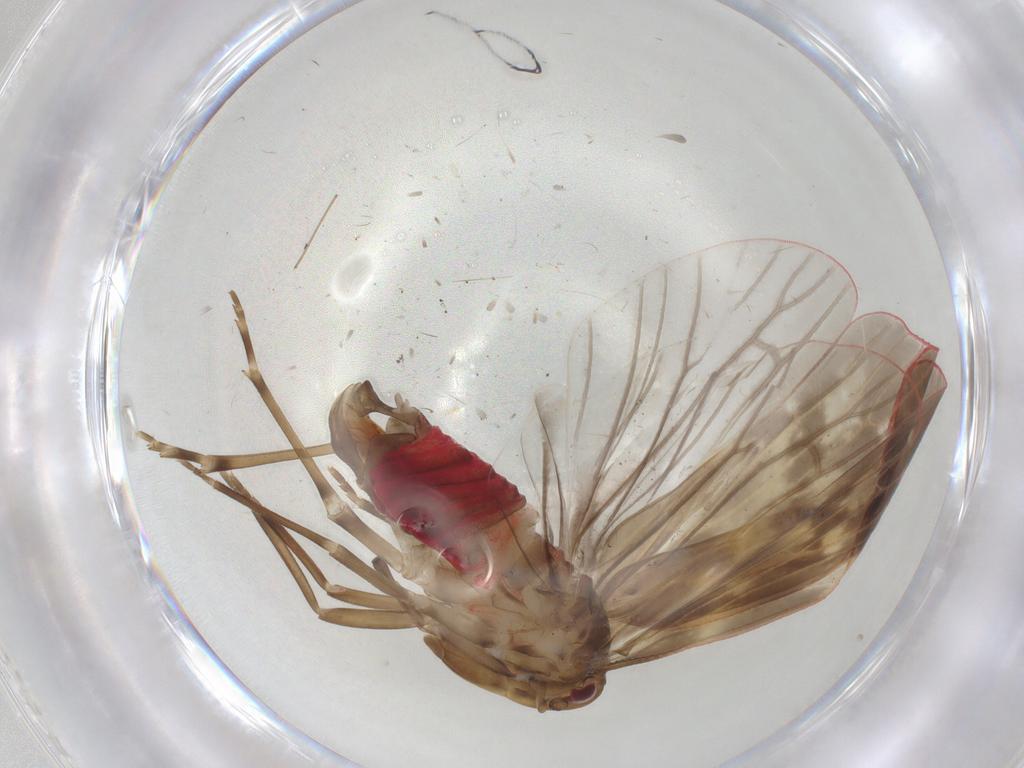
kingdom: Animalia
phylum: Arthropoda
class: Insecta
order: Hemiptera
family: Achilidae
